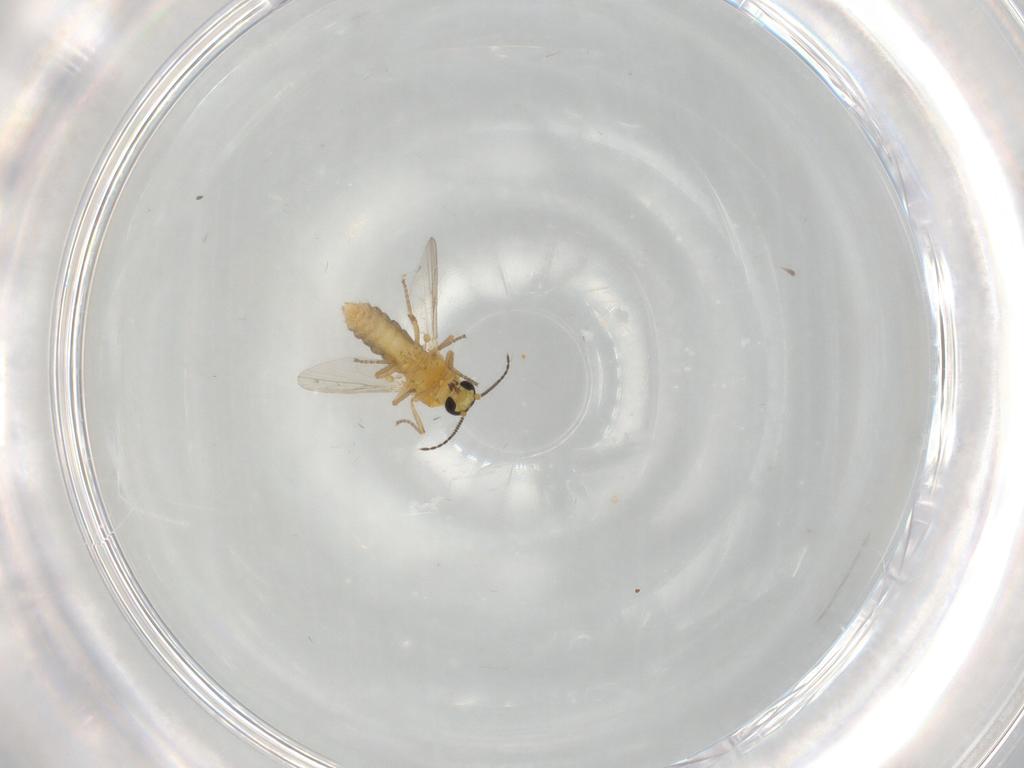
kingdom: Animalia
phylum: Arthropoda
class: Insecta
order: Diptera
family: Ceratopogonidae
